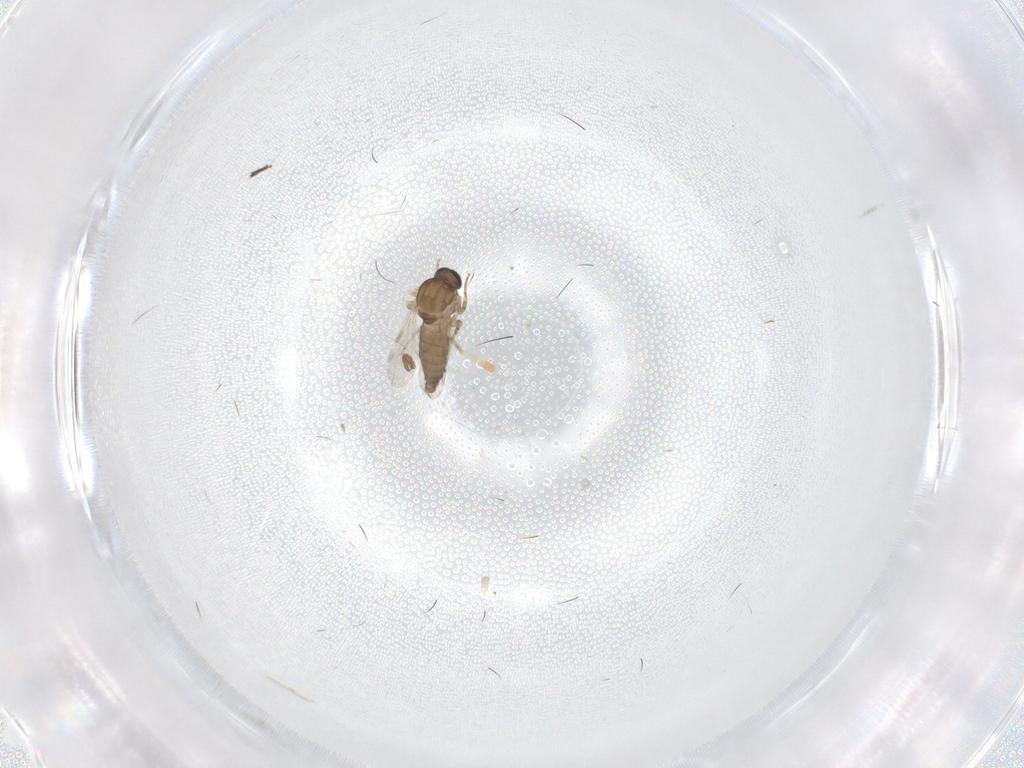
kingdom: Animalia
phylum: Arthropoda
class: Insecta
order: Diptera
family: Ceratopogonidae
